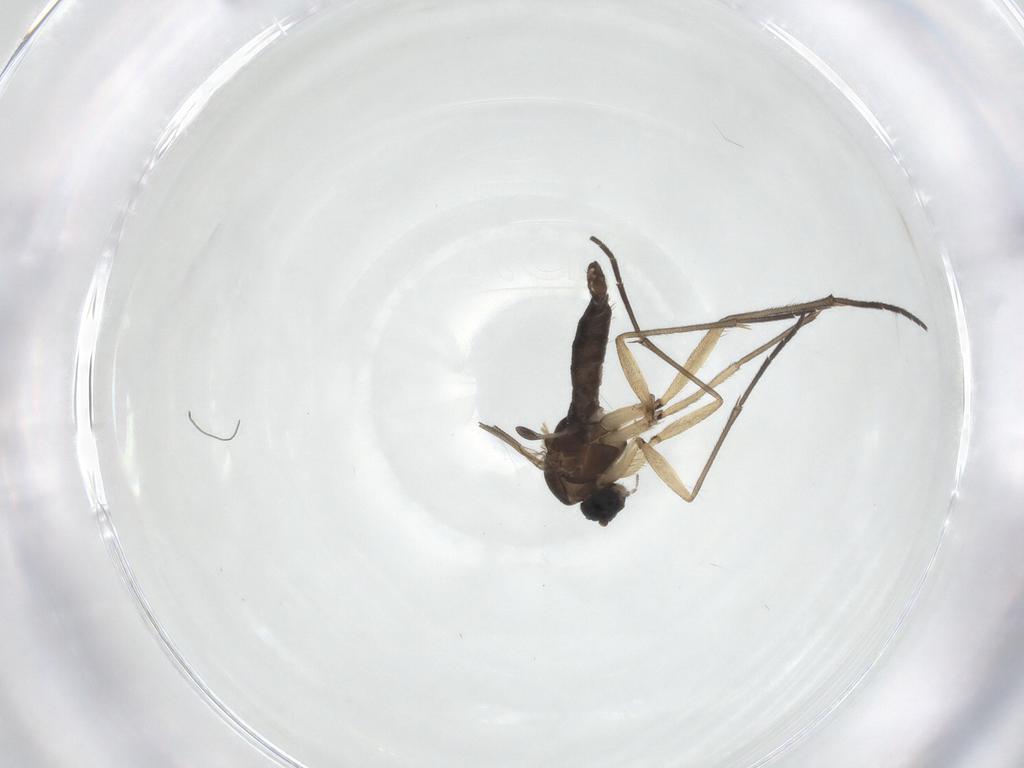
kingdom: Animalia
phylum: Arthropoda
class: Insecta
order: Diptera
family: Sciaridae
